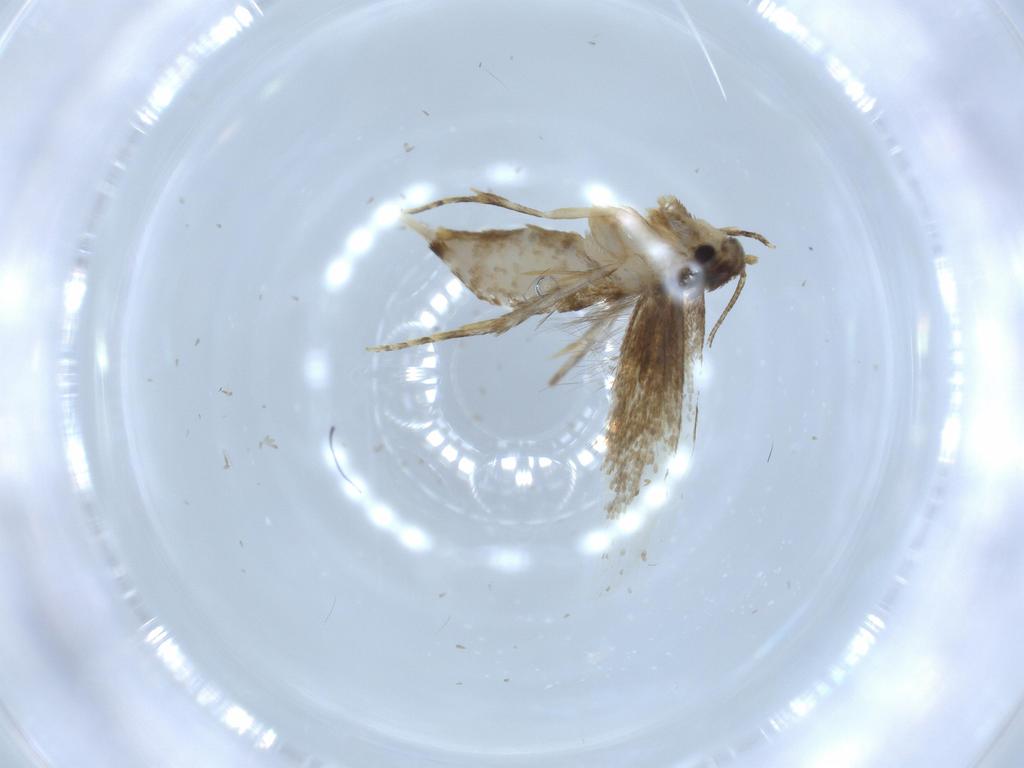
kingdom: Animalia
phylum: Arthropoda
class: Insecta
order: Lepidoptera
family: Tineidae
